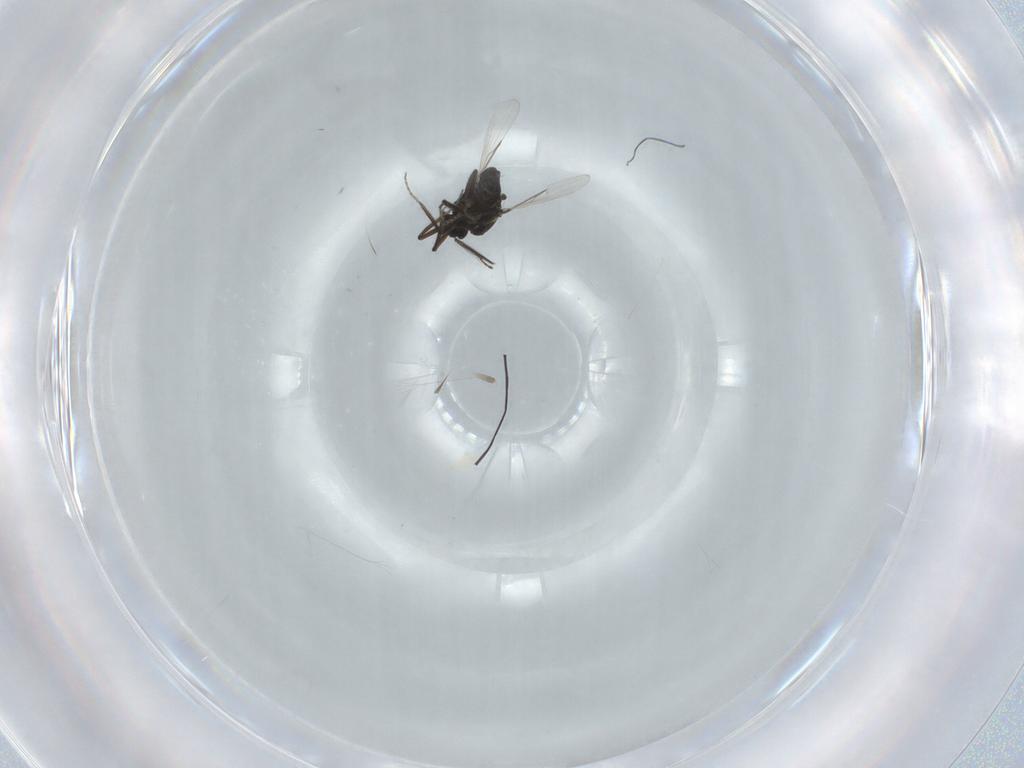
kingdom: Animalia
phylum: Arthropoda
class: Insecta
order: Diptera
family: Ceratopogonidae
